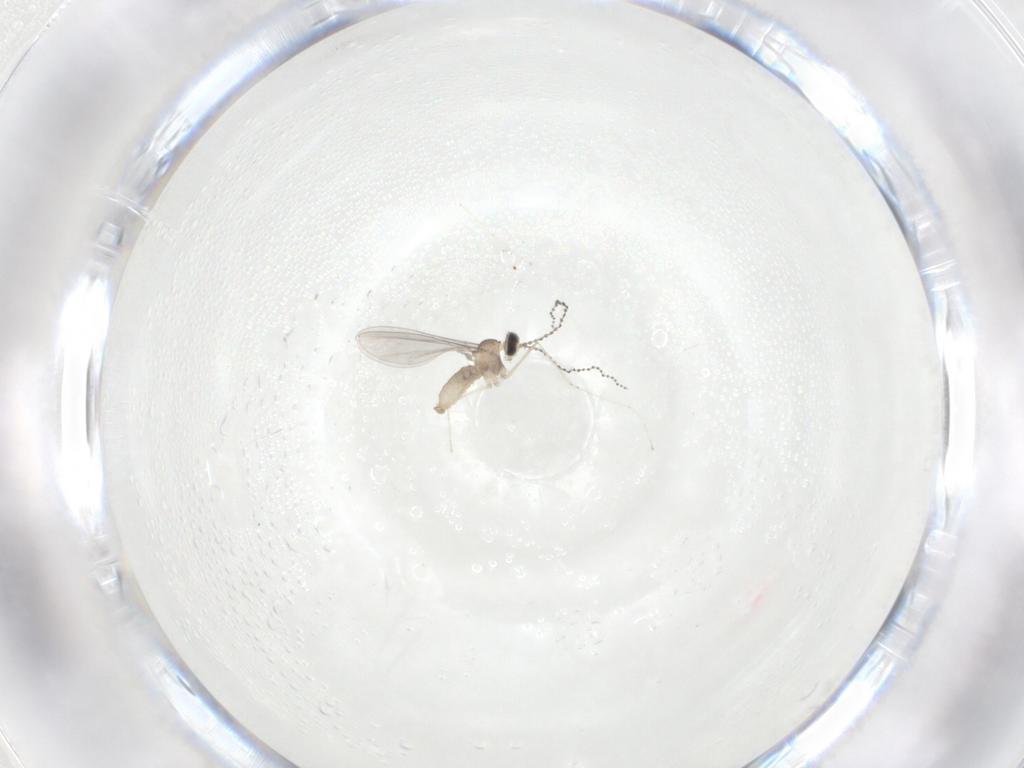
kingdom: Animalia
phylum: Arthropoda
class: Insecta
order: Diptera
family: Cecidomyiidae
